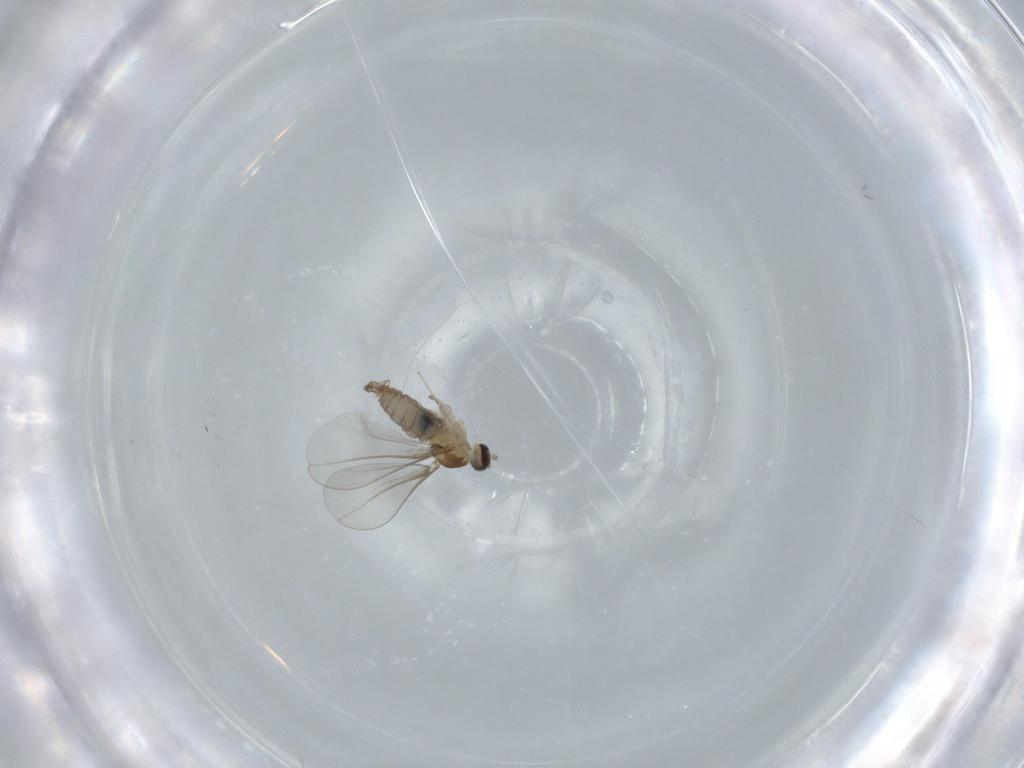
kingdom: Animalia
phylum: Arthropoda
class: Insecta
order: Diptera
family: Cecidomyiidae
